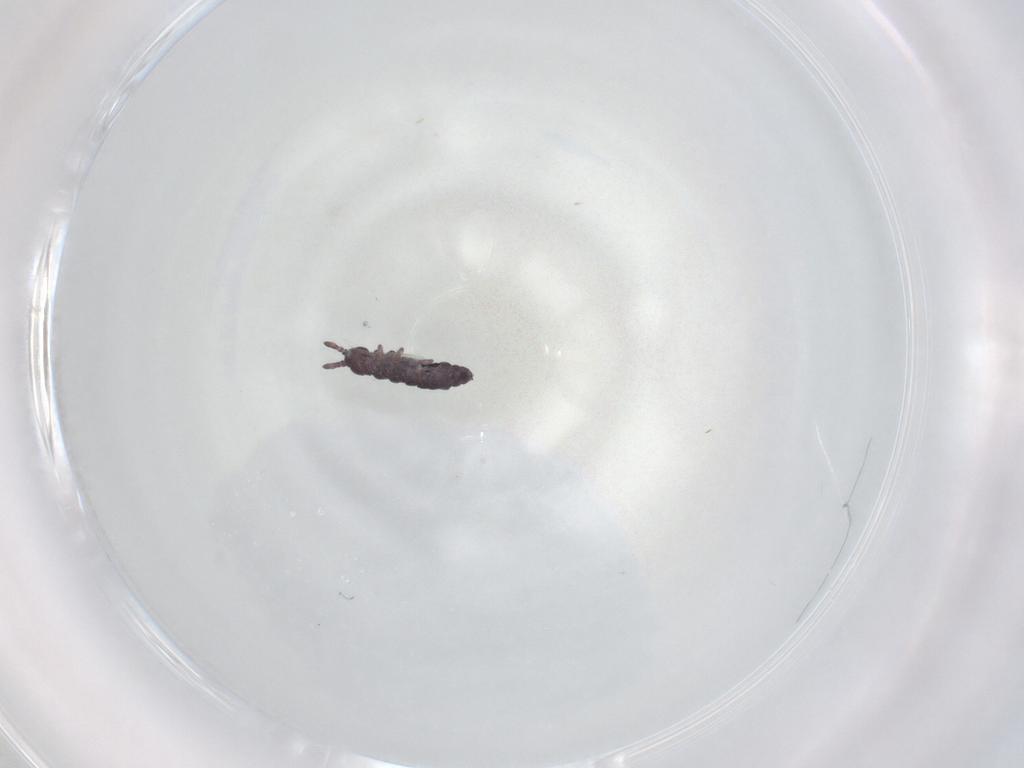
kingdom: Animalia
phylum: Arthropoda
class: Collembola
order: Poduromorpha
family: Hypogastruridae
